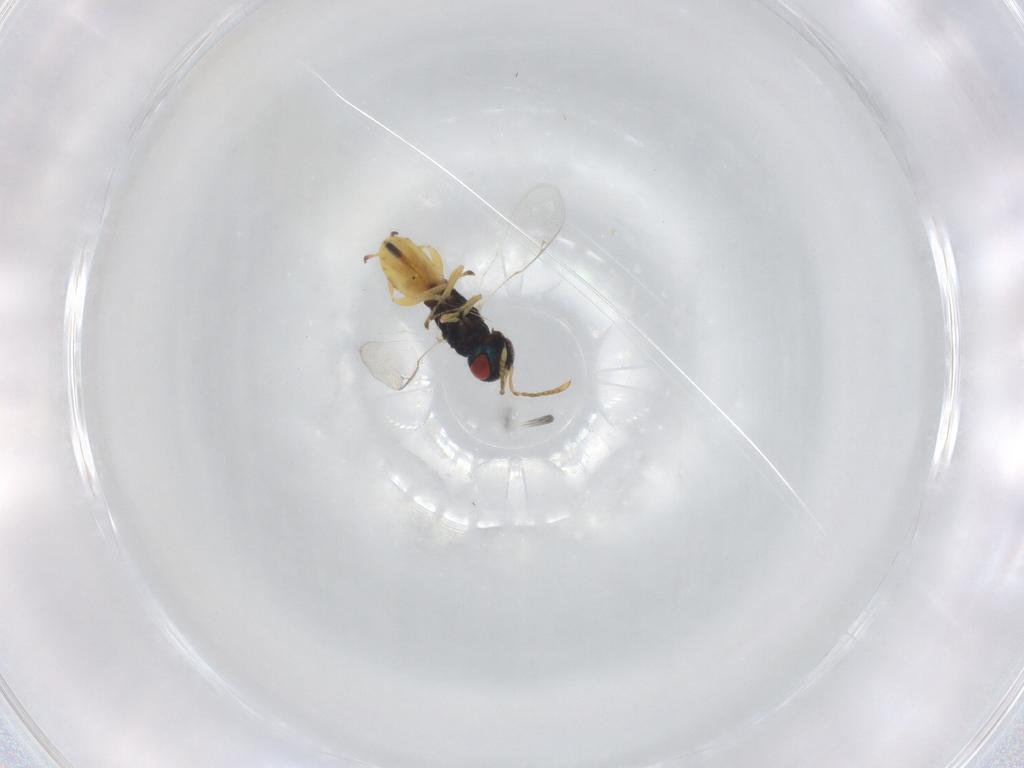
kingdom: Animalia
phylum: Arthropoda
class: Insecta
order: Hymenoptera
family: Pteromalidae
